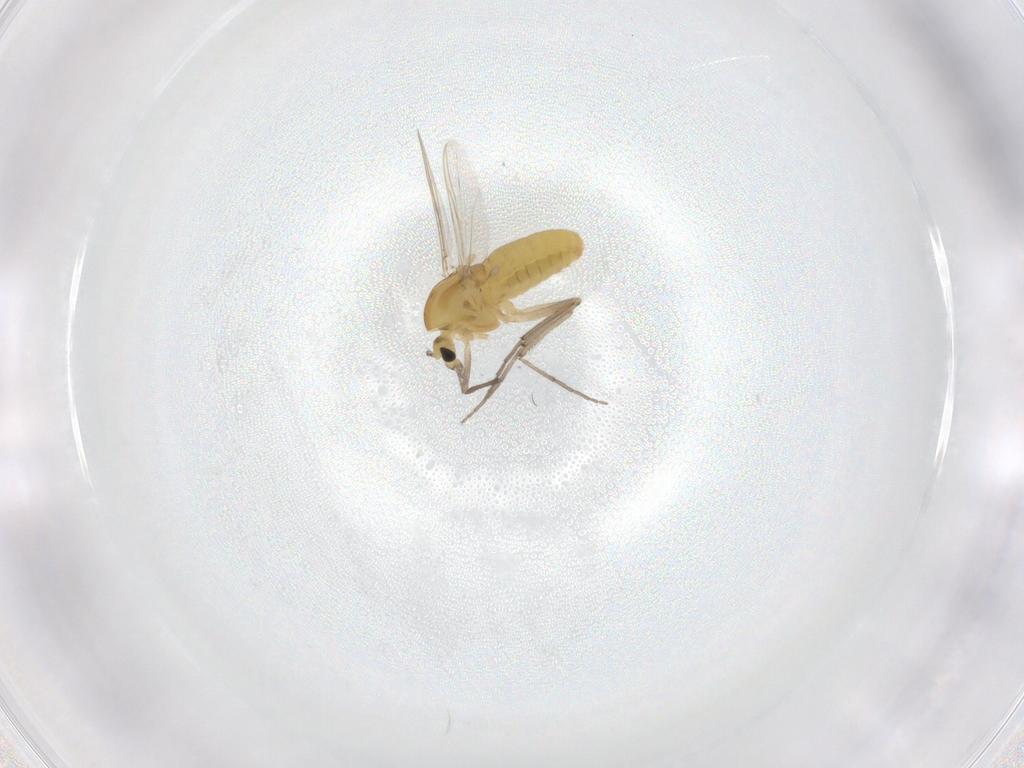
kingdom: Animalia
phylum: Arthropoda
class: Insecta
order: Diptera
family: Chironomidae
